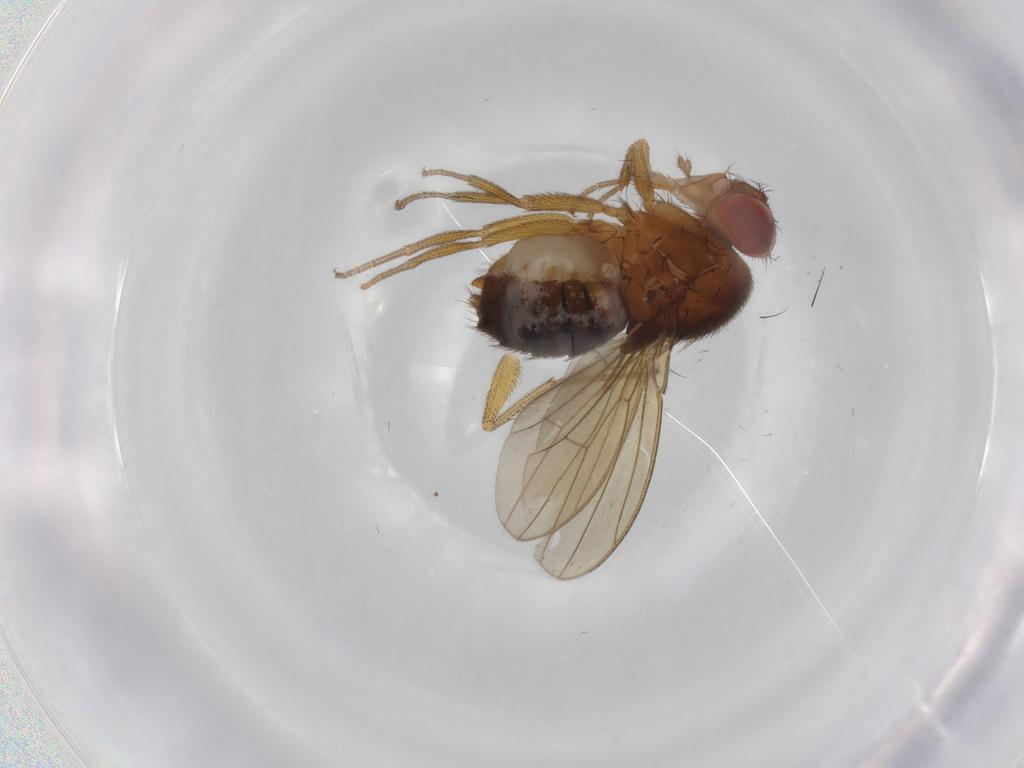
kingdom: Animalia
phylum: Arthropoda
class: Insecta
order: Diptera
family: Drosophilidae
